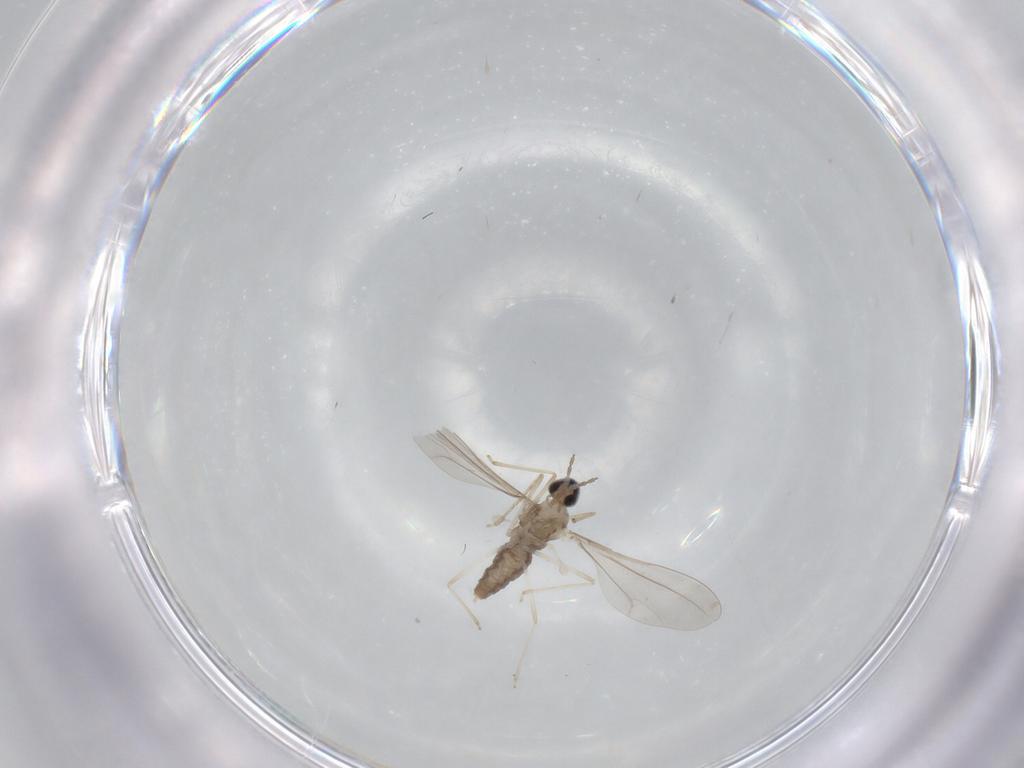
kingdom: Animalia
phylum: Arthropoda
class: Insecta
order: Diptera
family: Cecidomyiidae
